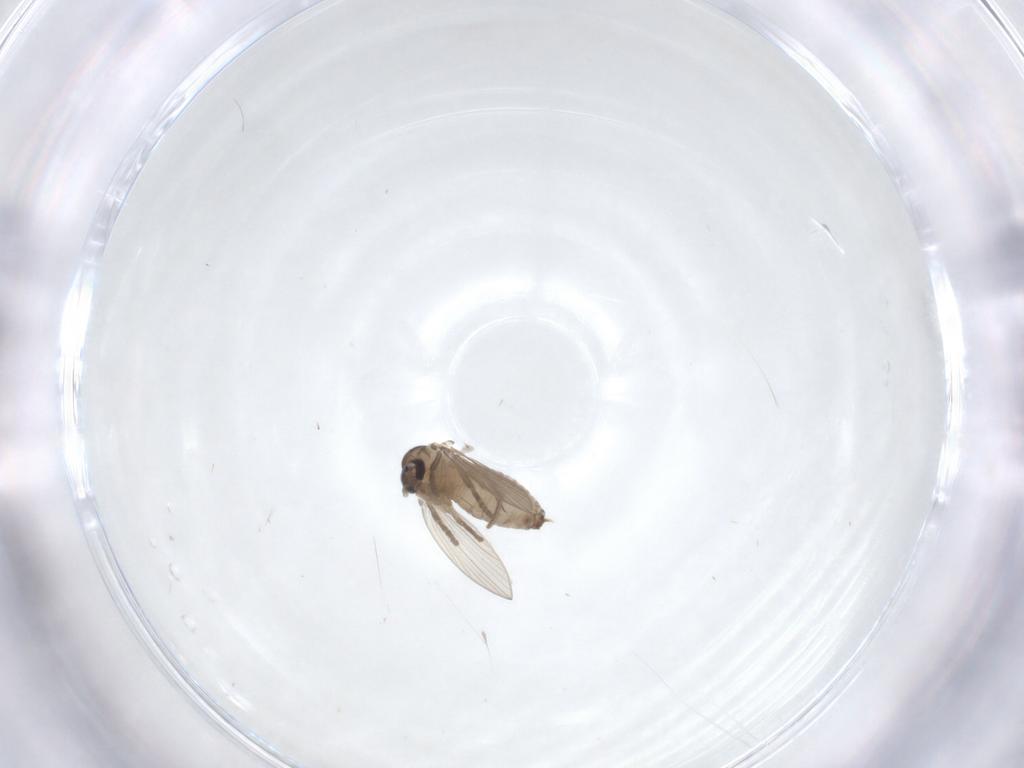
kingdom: Animalia
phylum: Arthropoda
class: Insecta
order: Diptera
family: Psychodidae
